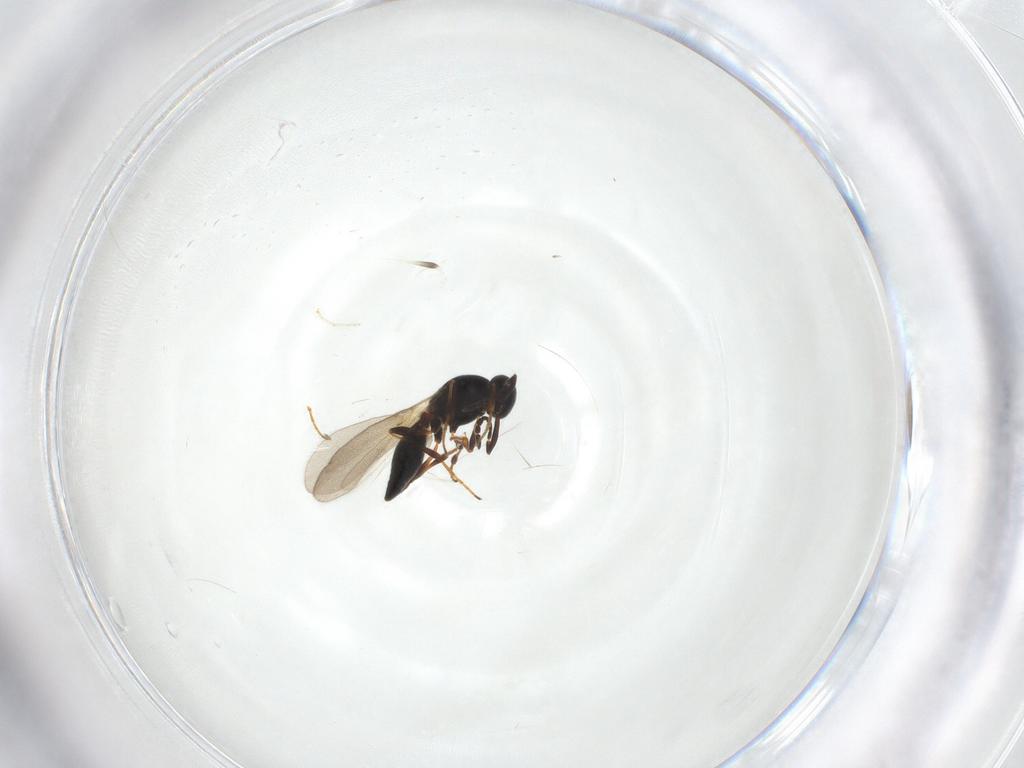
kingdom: Animalia
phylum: Arthropoda
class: Insecta
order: Hymenoptera
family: Platygastridae
